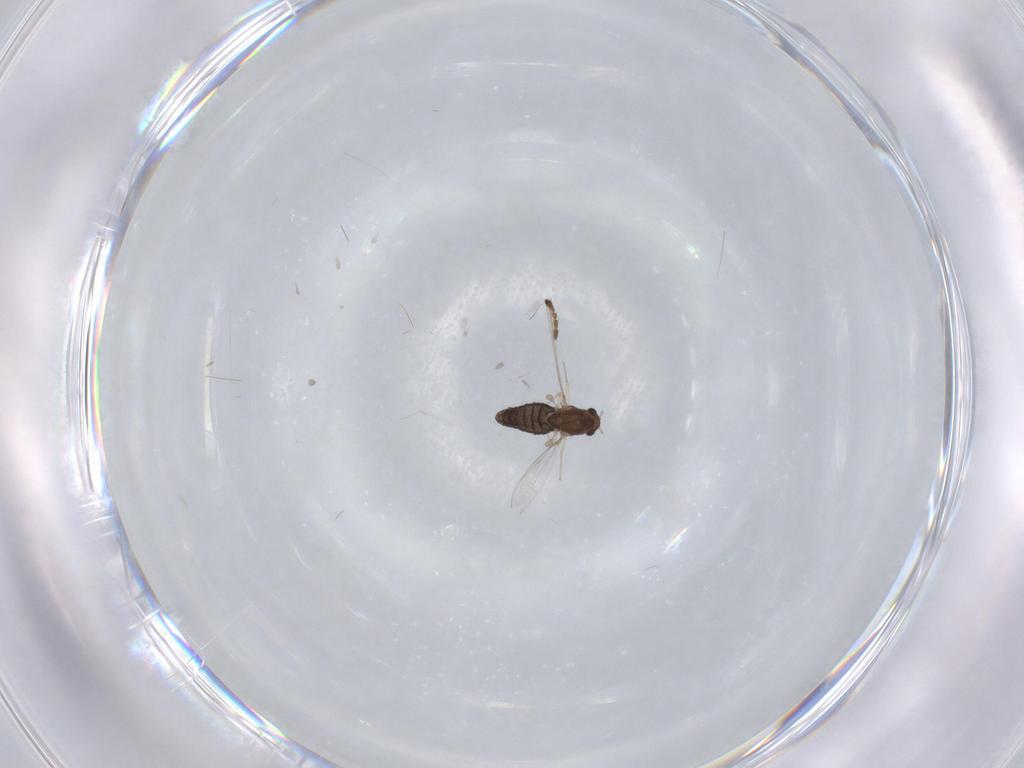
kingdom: Animalia
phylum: Arthropoda
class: Insecta
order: Diptera
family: Chironomidae
